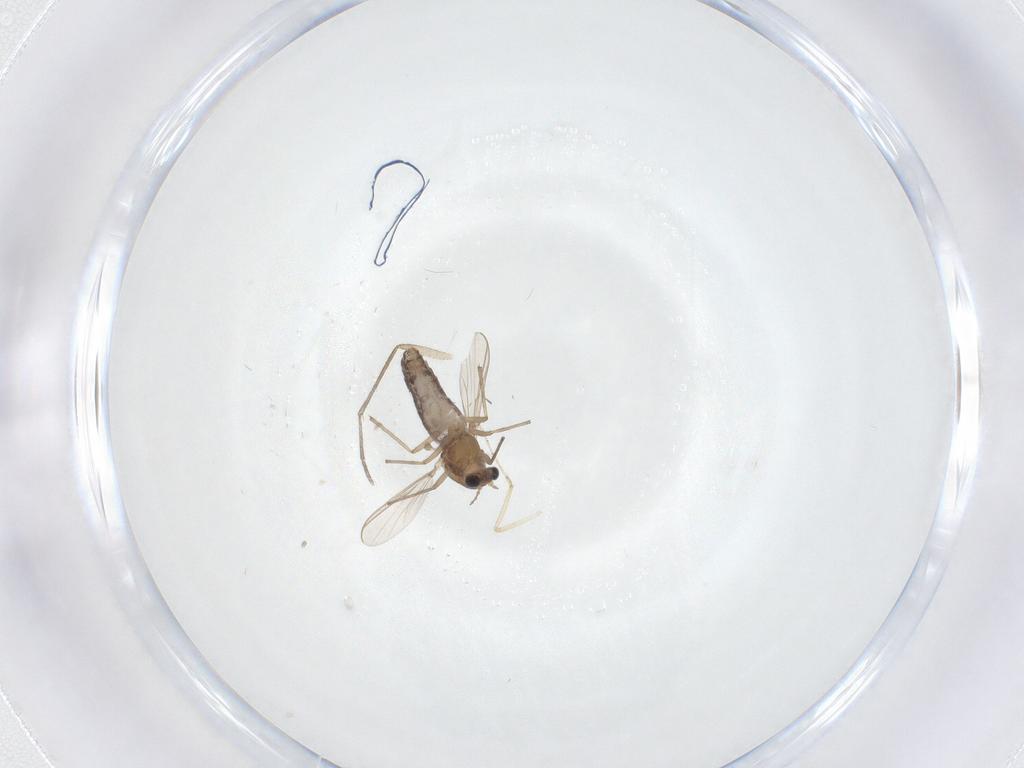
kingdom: Animalia
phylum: Arthropoda
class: Insecta
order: Diptera
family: Chironomidae
